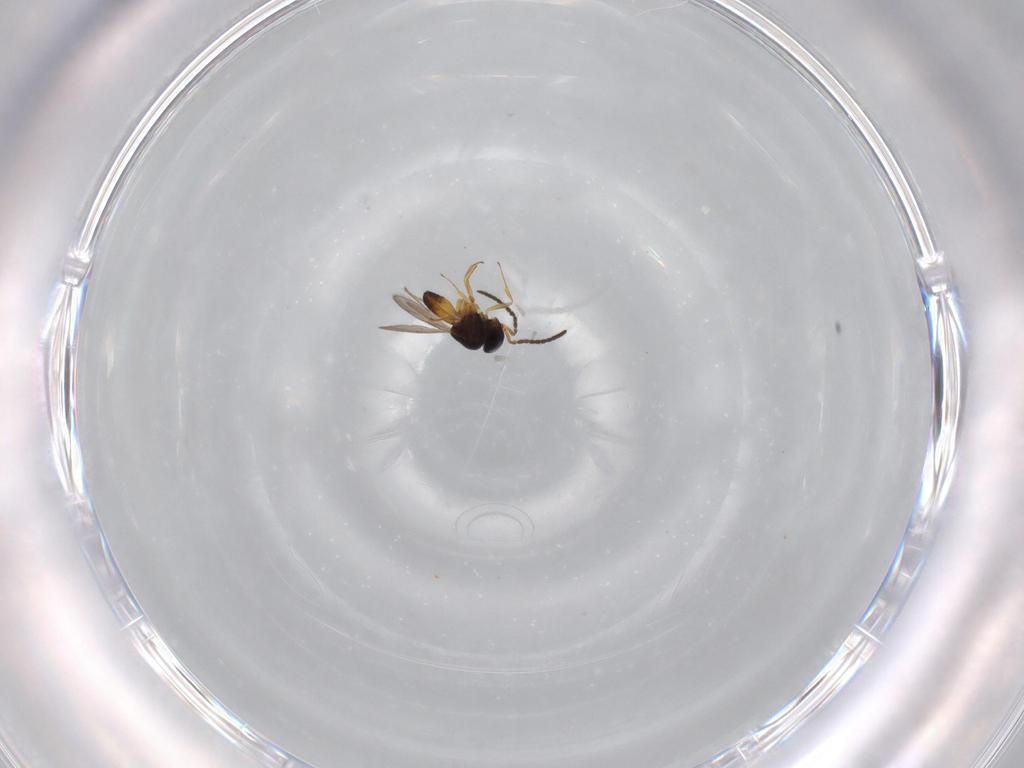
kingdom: Animalia
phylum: Arthropoda
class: Insecta
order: Hymenoptera
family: Scelionidae
